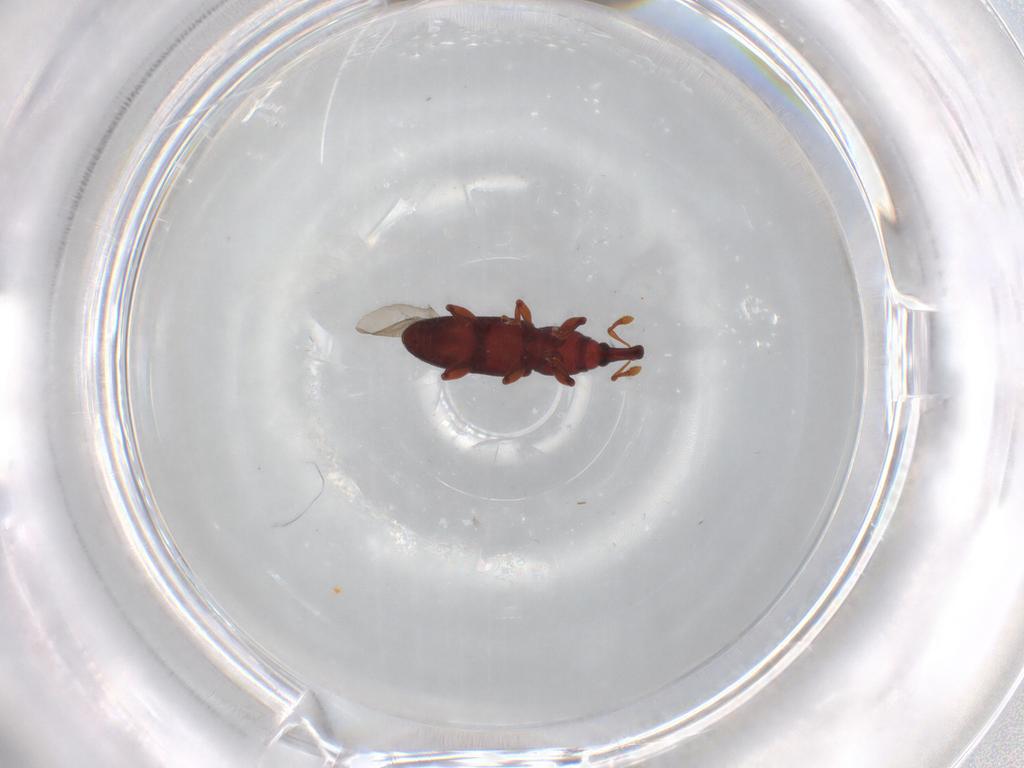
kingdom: Animalia
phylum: Arthropoda
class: Insecta
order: Coleoptera
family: Curculionidae
